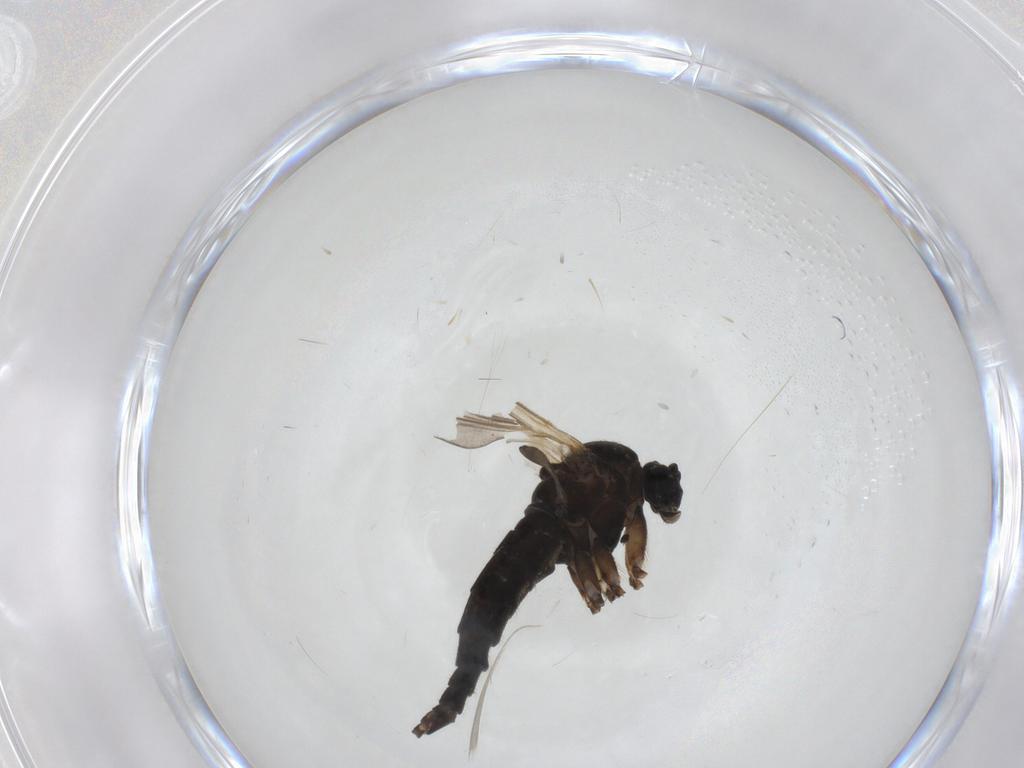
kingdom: Animalia
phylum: Arthropoda
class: Insecta
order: Diptera
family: Sciaridae
